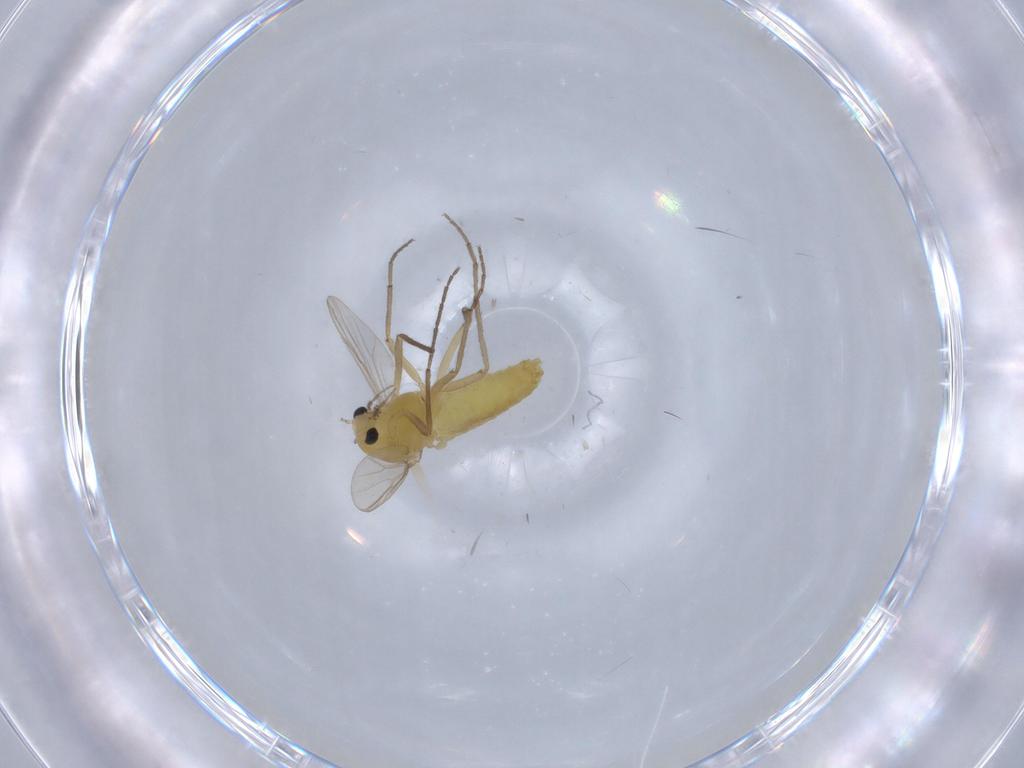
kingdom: Animalia
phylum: Arthropoda
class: Insecta
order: Diptera
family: Chironomidae
